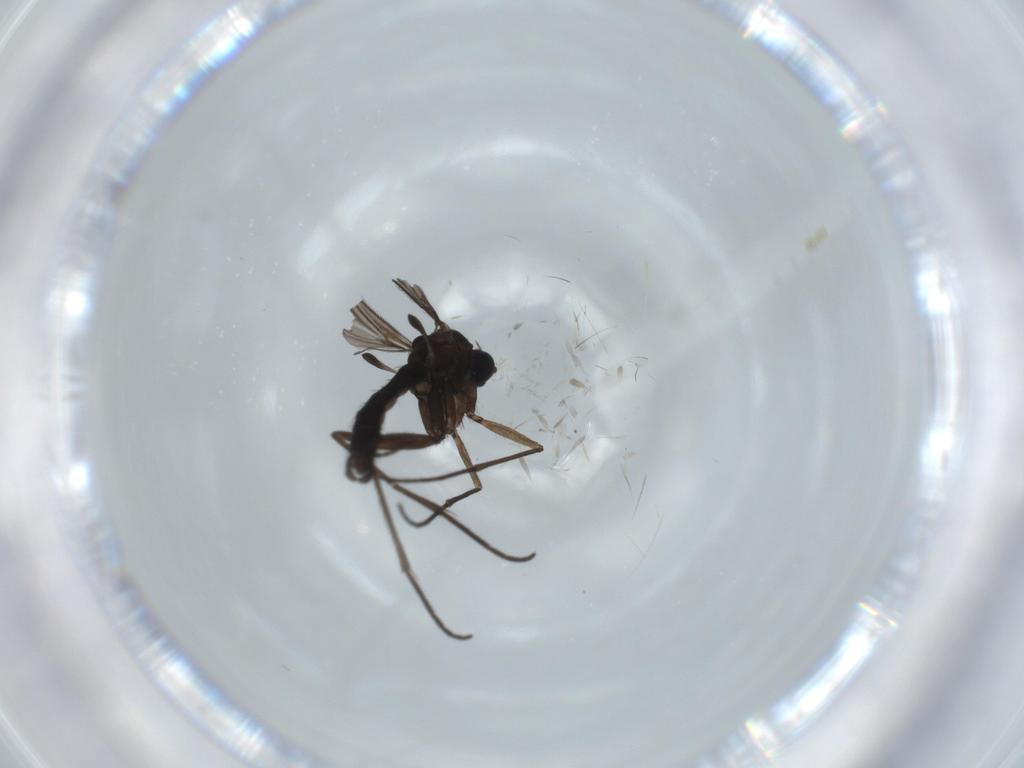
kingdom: Animalia
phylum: Arthropoda
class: Insecta
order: Diptera
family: Sciaridae
